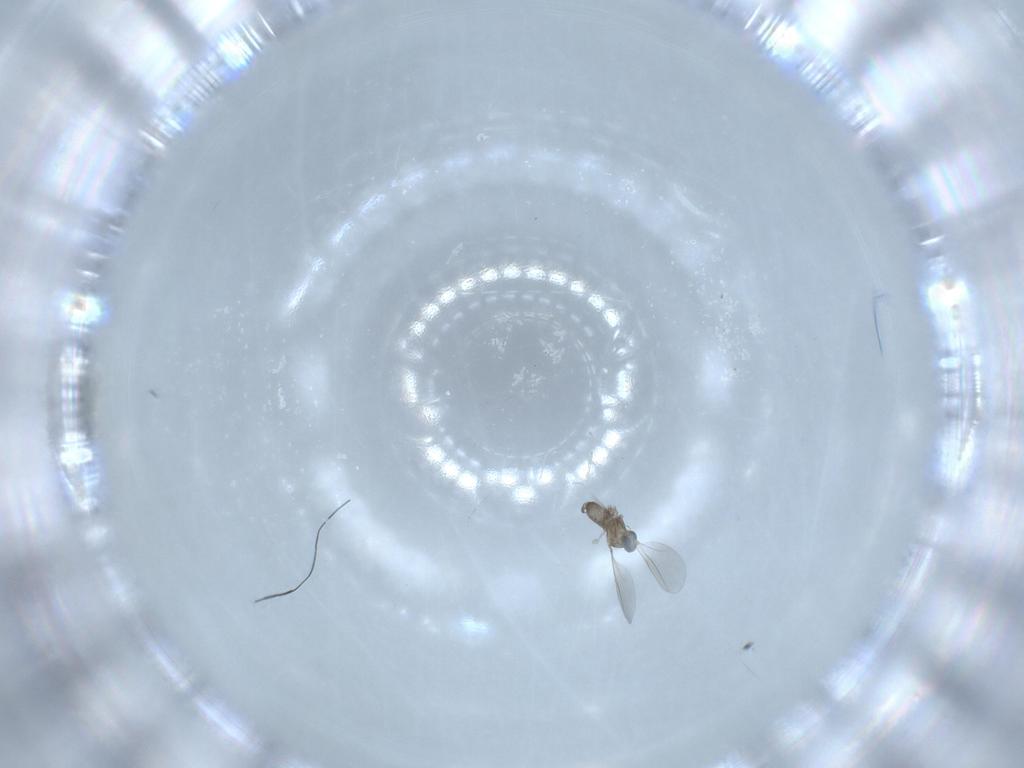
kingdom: Animalia
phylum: Arthropoda
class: Insecta
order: Diptera
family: Cecidomyiidae
